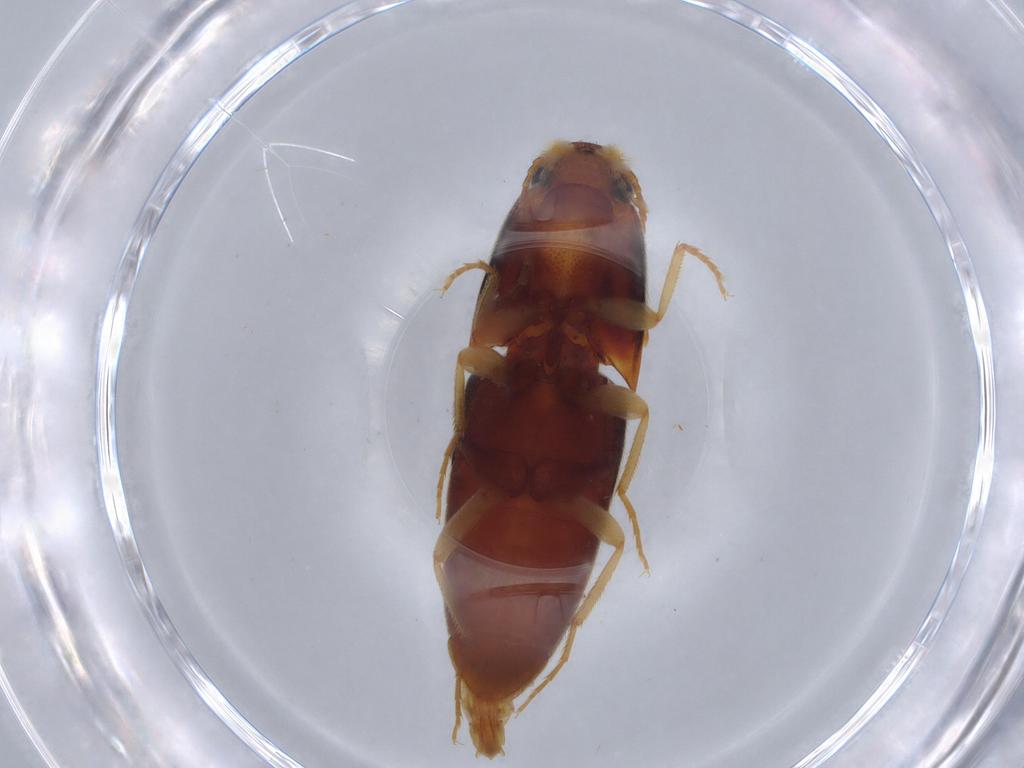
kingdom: Animalia
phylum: Arthropoda
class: Insecta
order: Coleoptera
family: Elateridae
